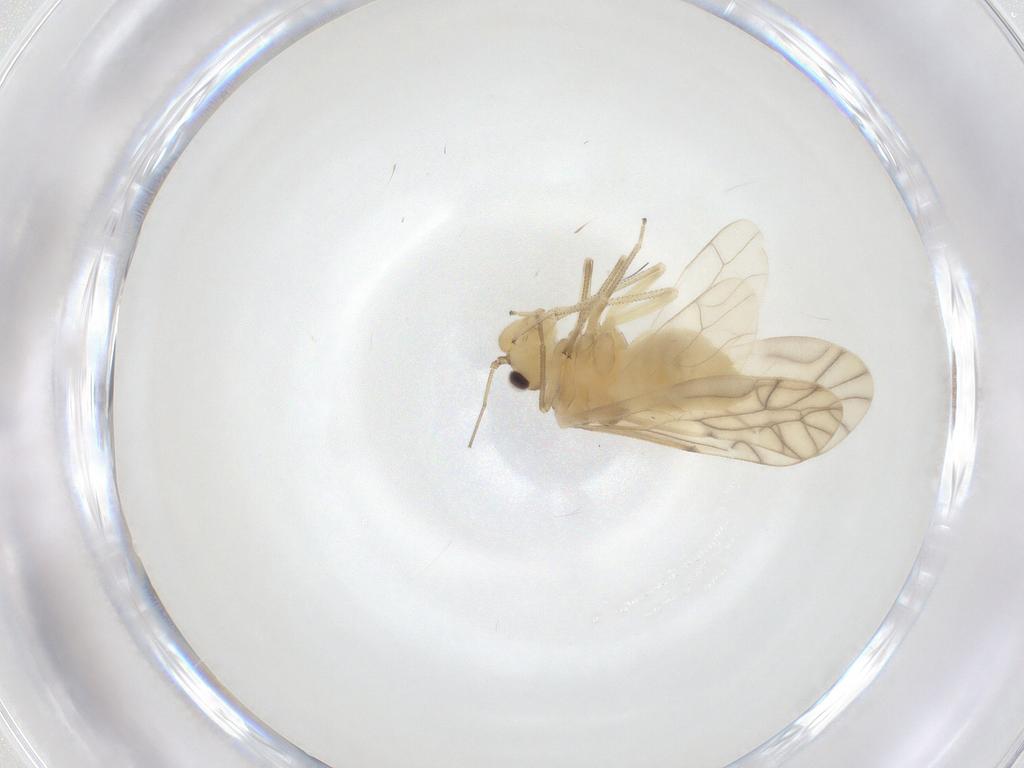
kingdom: Animalia
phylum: Arthropoda
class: Insecta
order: Psocodea
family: Caeciliusidae
